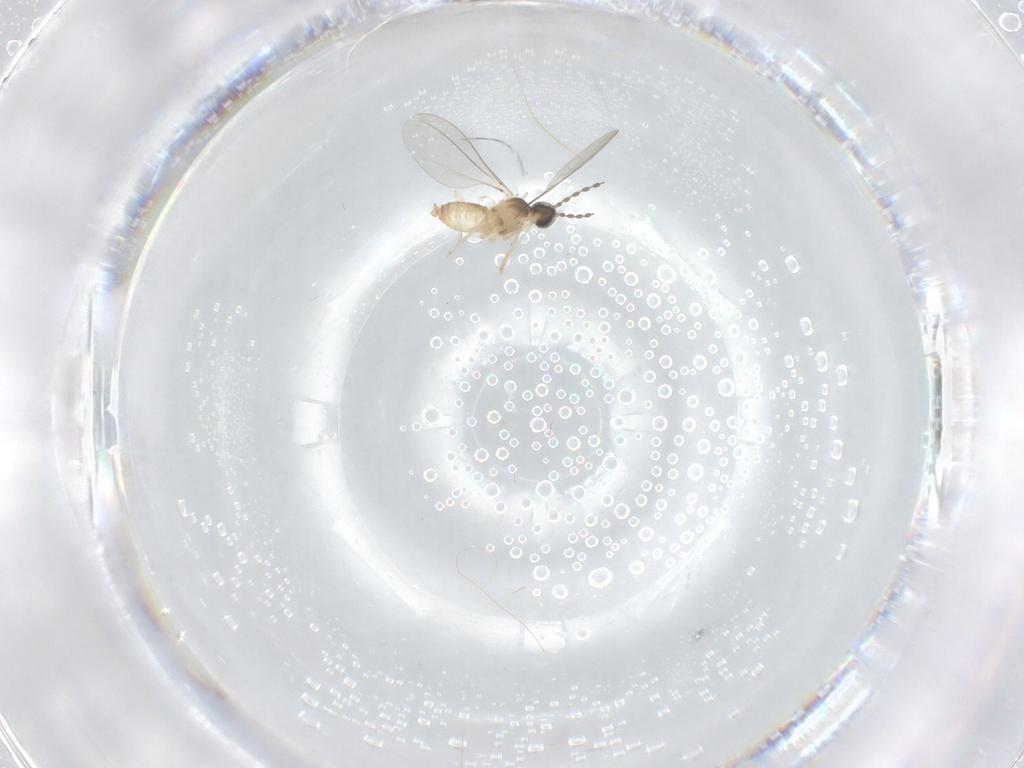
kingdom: Animalia
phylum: Arthropoda
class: Insecta
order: Diptera
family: Cecidomyiidae
